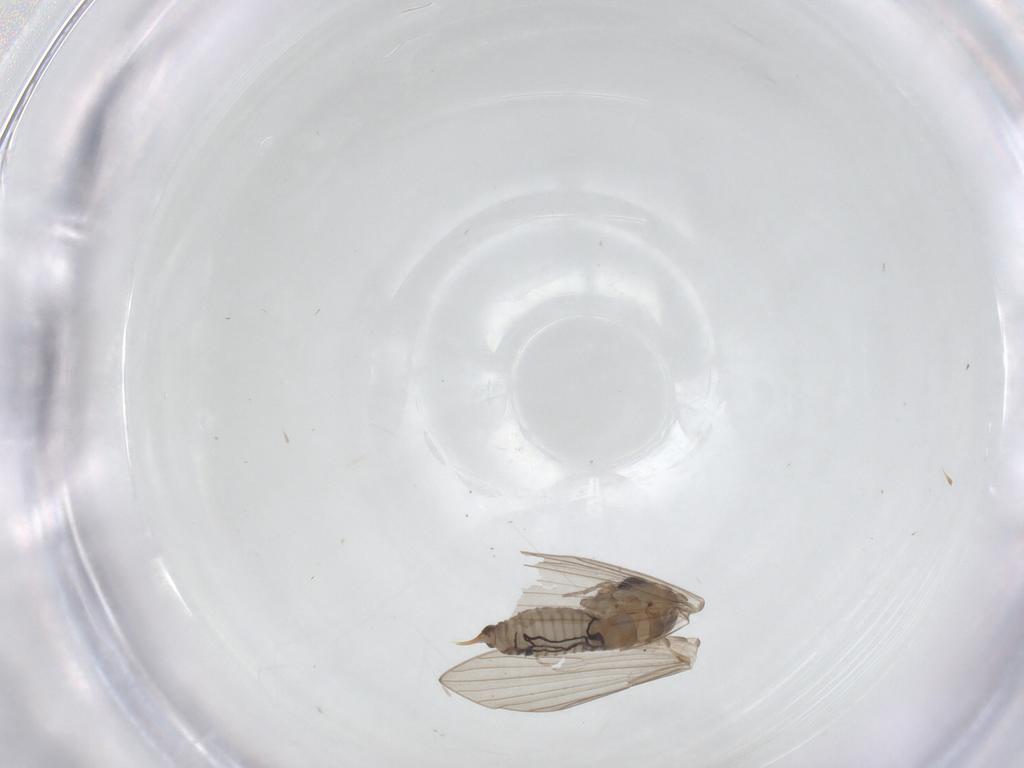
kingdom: Animalia
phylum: Arthropoda
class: Insecta
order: Diptera
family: Psychodidae
